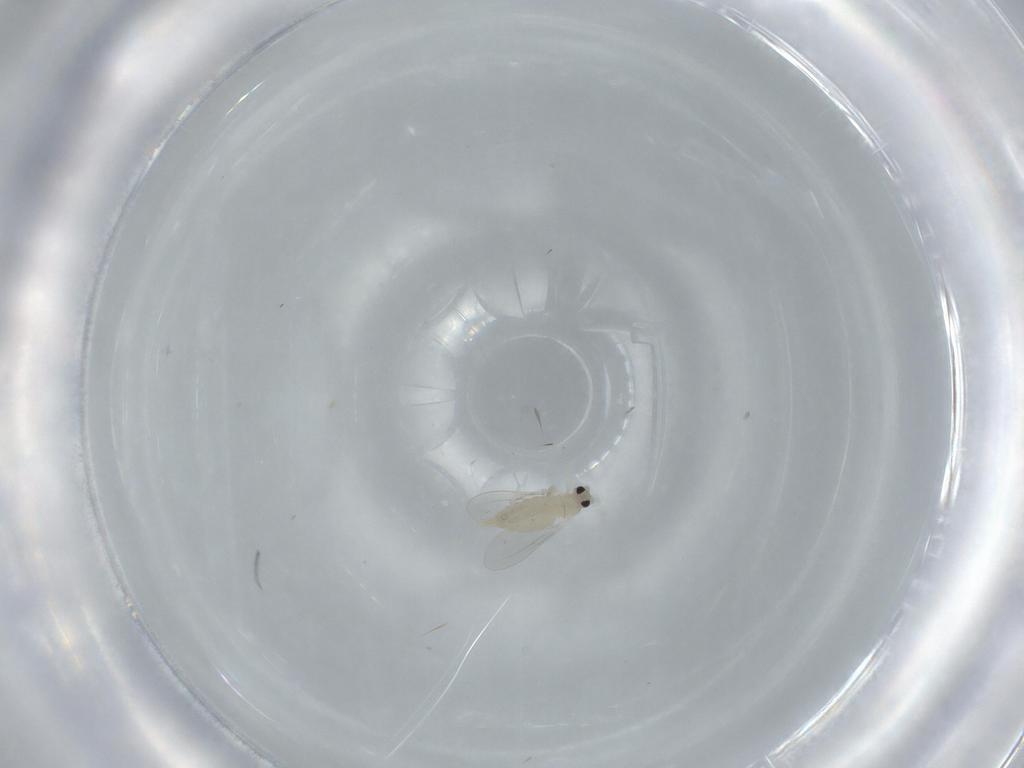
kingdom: Animalia
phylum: Arthropoda
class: Insecta
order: Diptera
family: Cecidomyiidae
